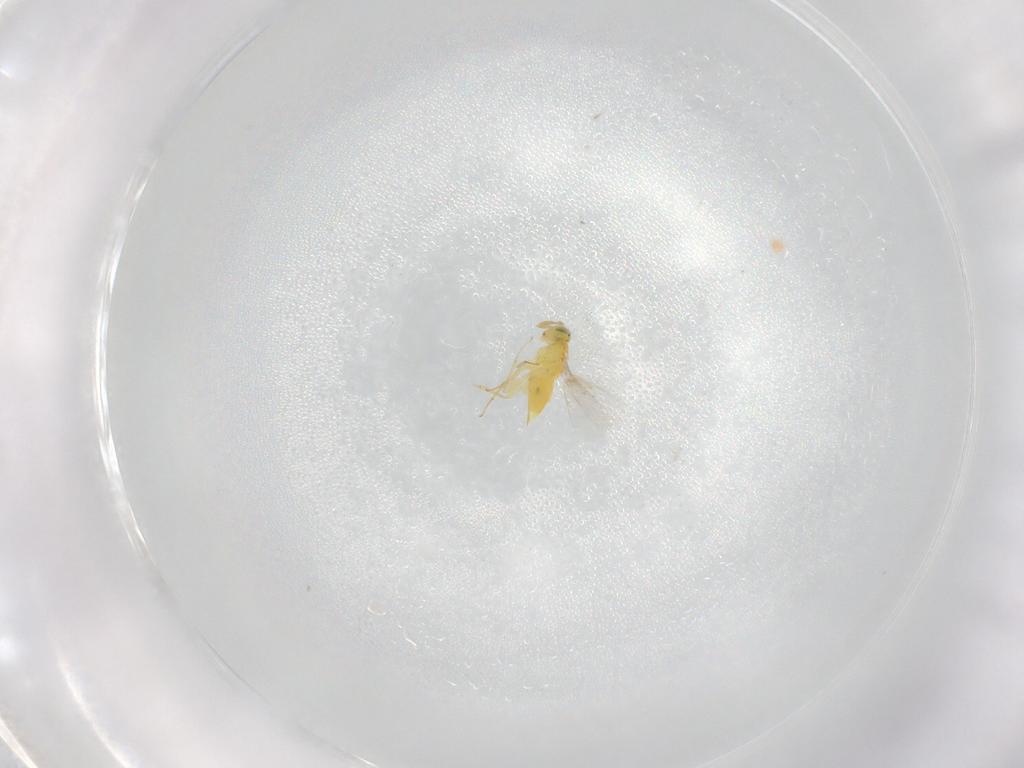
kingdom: Animalia
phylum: Arthropoda
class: Insecta
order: Hymenoptera
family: Aphelinidae
